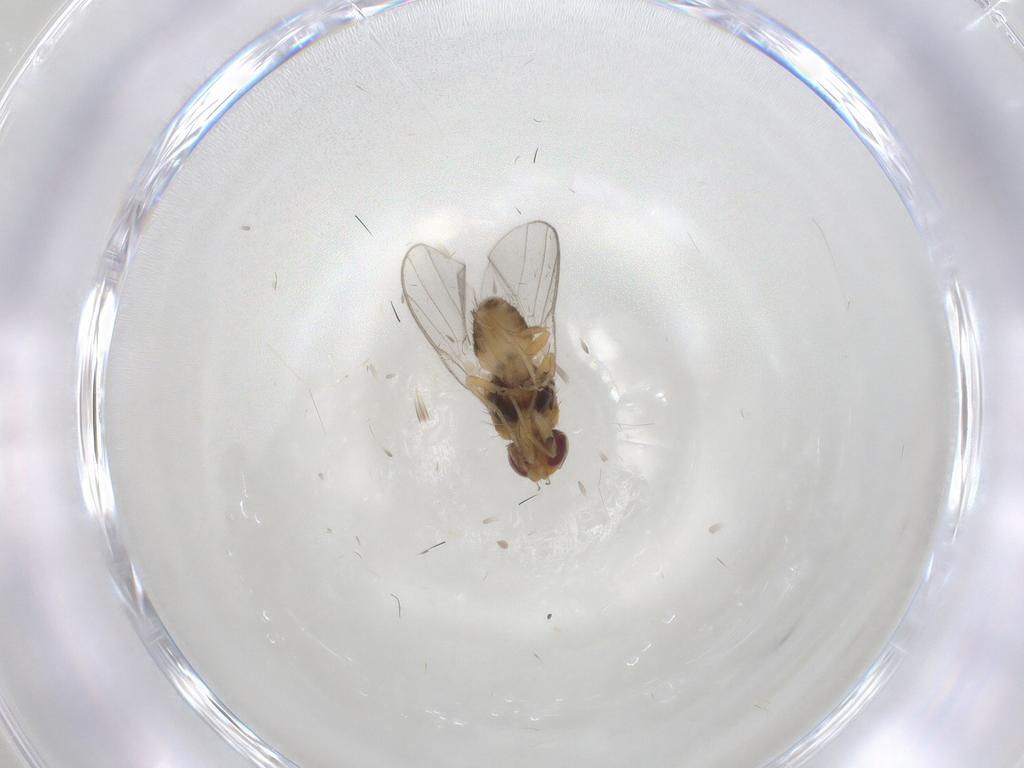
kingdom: Animalia
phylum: Arthropoda
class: Insecta
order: Diptera
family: Chloropidae
